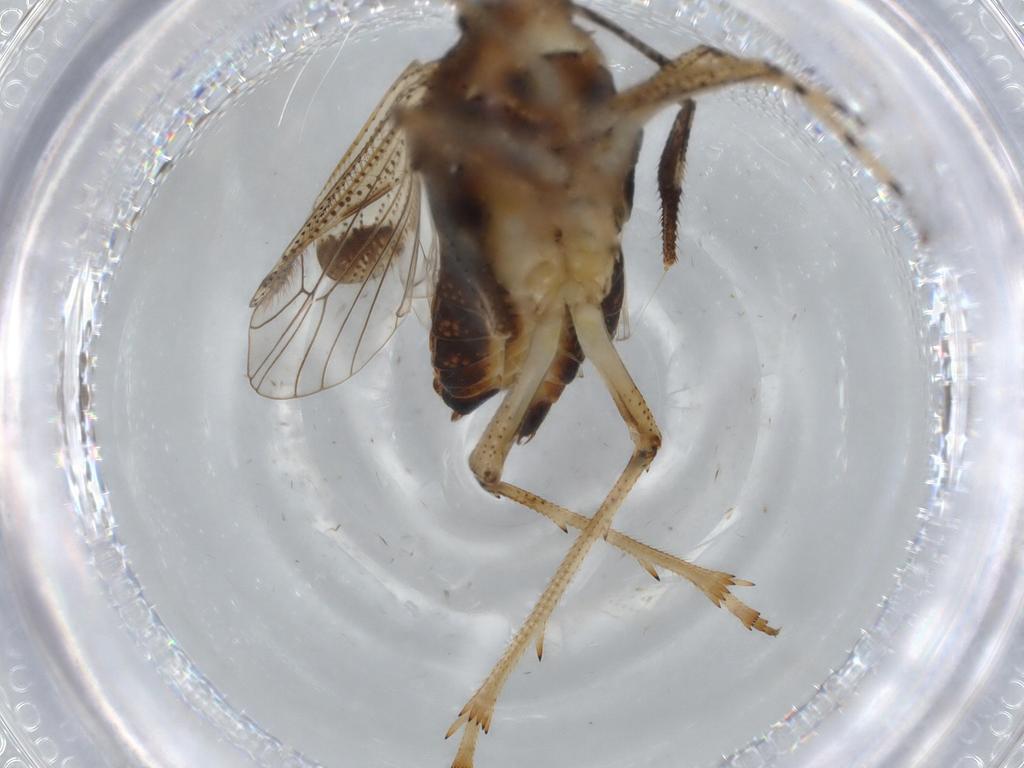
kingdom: Animalia
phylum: Arthropoda
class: Insecta
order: Hemiptera
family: Delphacidae
